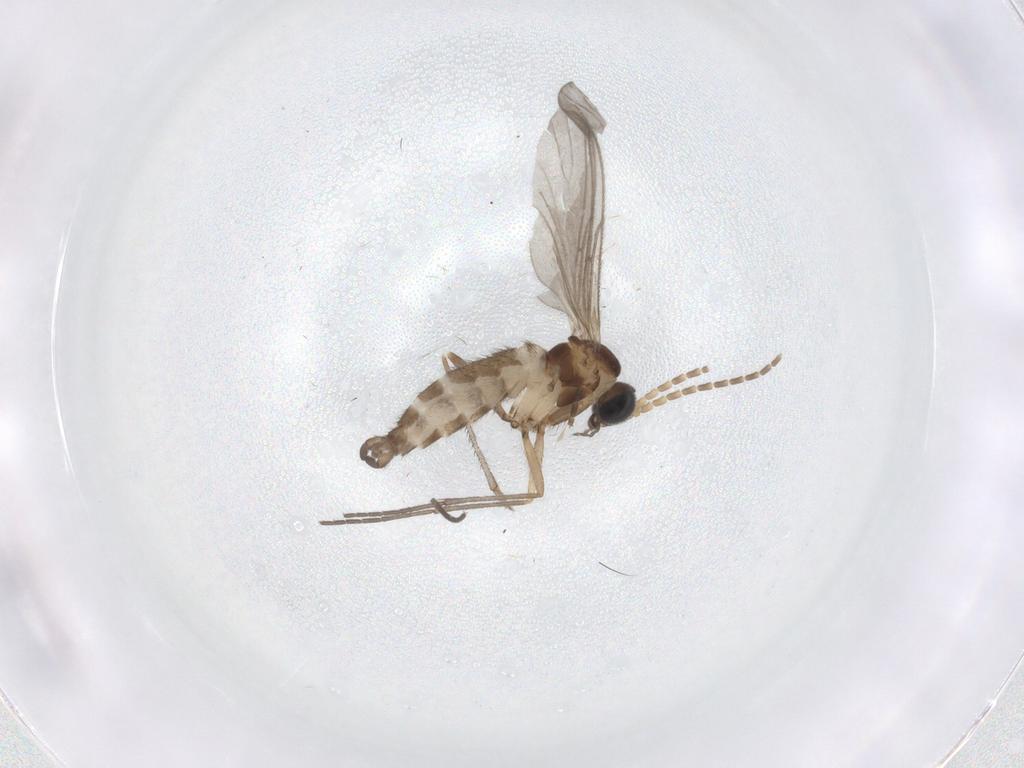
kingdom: Animalia
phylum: Arthropoda
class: Insecta
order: Diptera
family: Sciaridae
